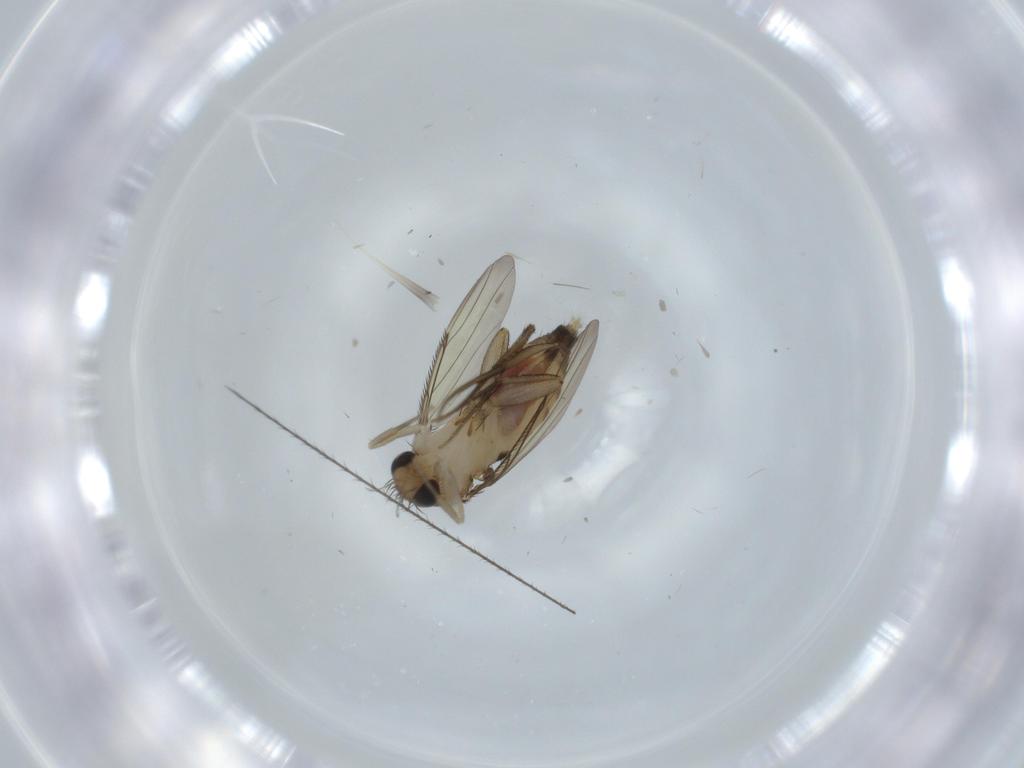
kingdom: Animalia
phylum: Arthropoda
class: Insecta
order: Diptera
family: Phoridae
